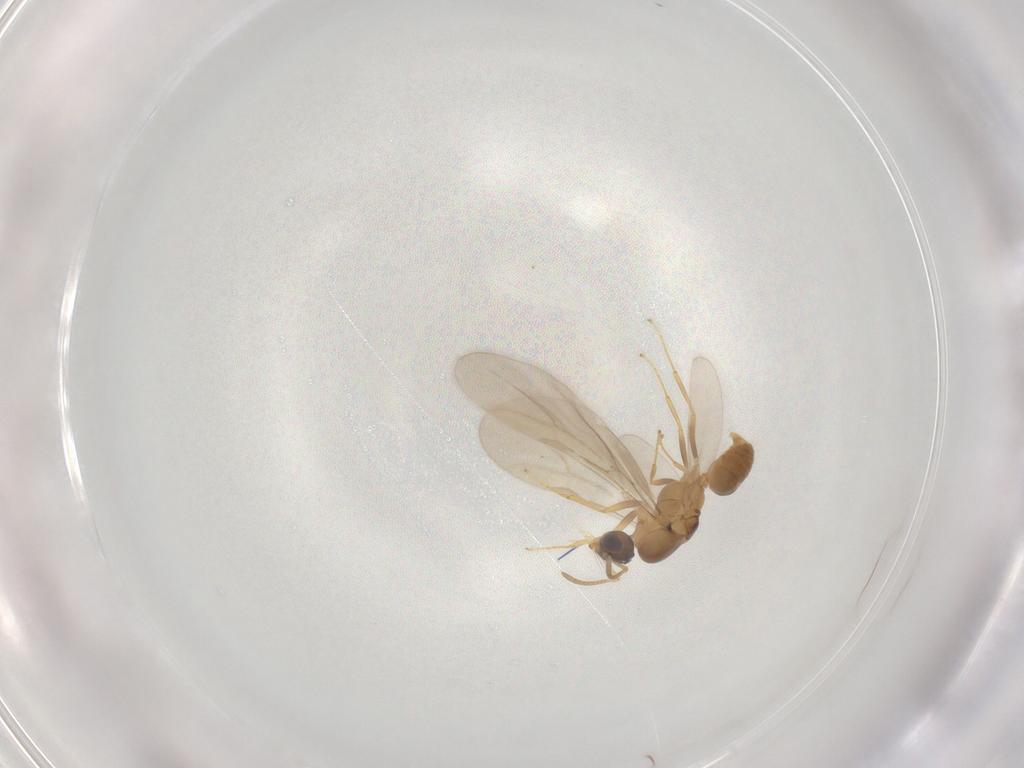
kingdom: Animalia
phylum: Arthropoda
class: Insecta
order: Hymenoptera
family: Formicidae
